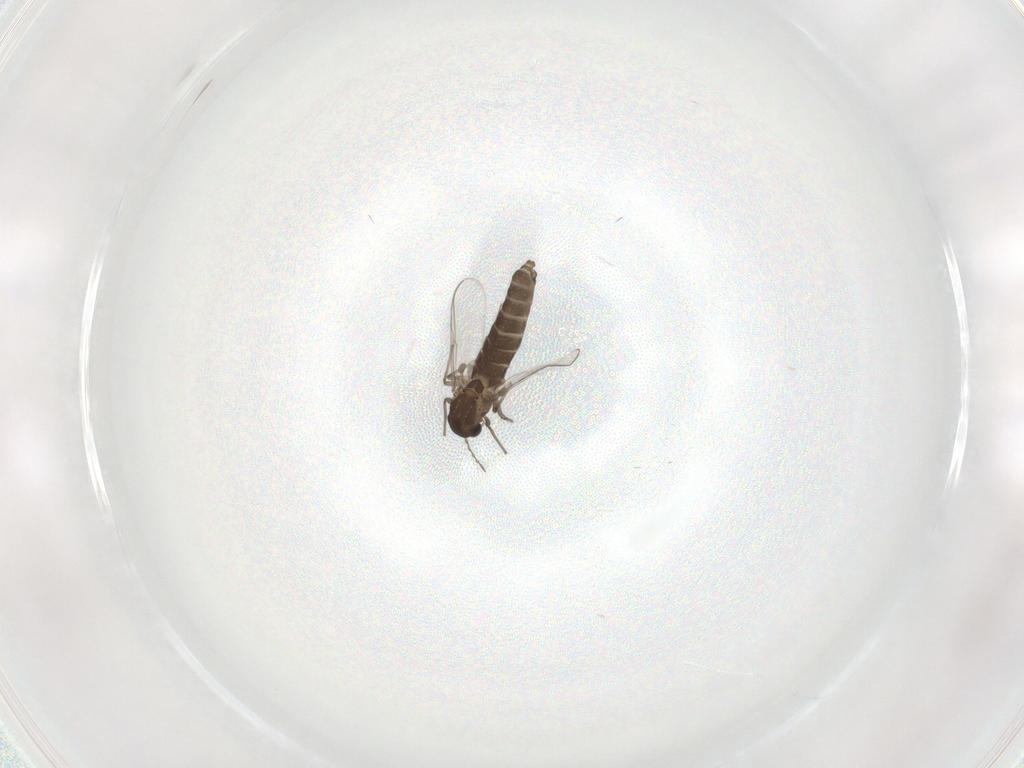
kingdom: Animalia
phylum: Arthropoda
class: Insecta
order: Diptera
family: Chironomidae
